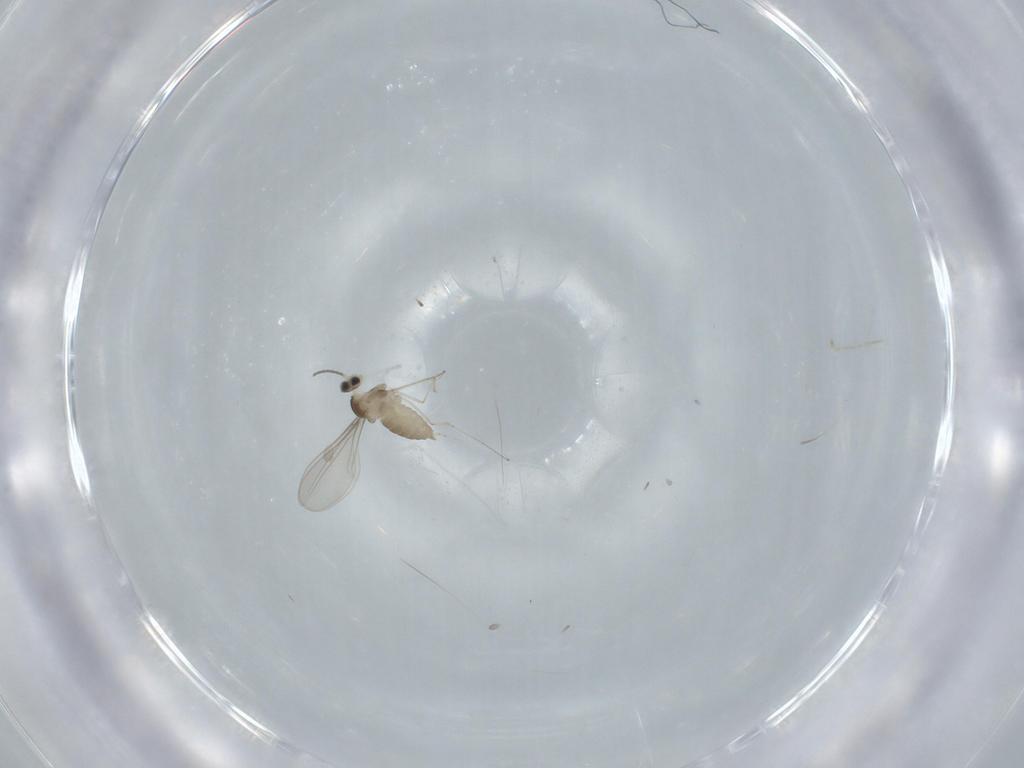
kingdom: Animalia
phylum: Arthropoda
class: Insecta
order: Diptera
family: Cecidomyiidae
